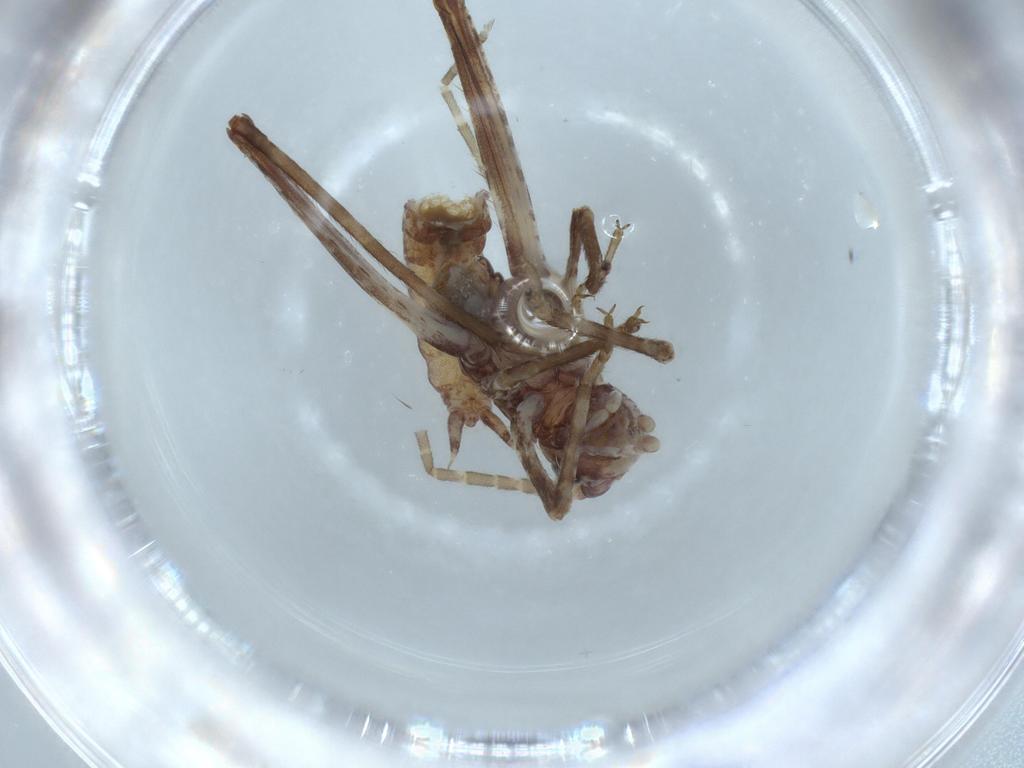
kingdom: Animalia
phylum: Arthropoda
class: Insecta
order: Orthoptera
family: Gryllidae
